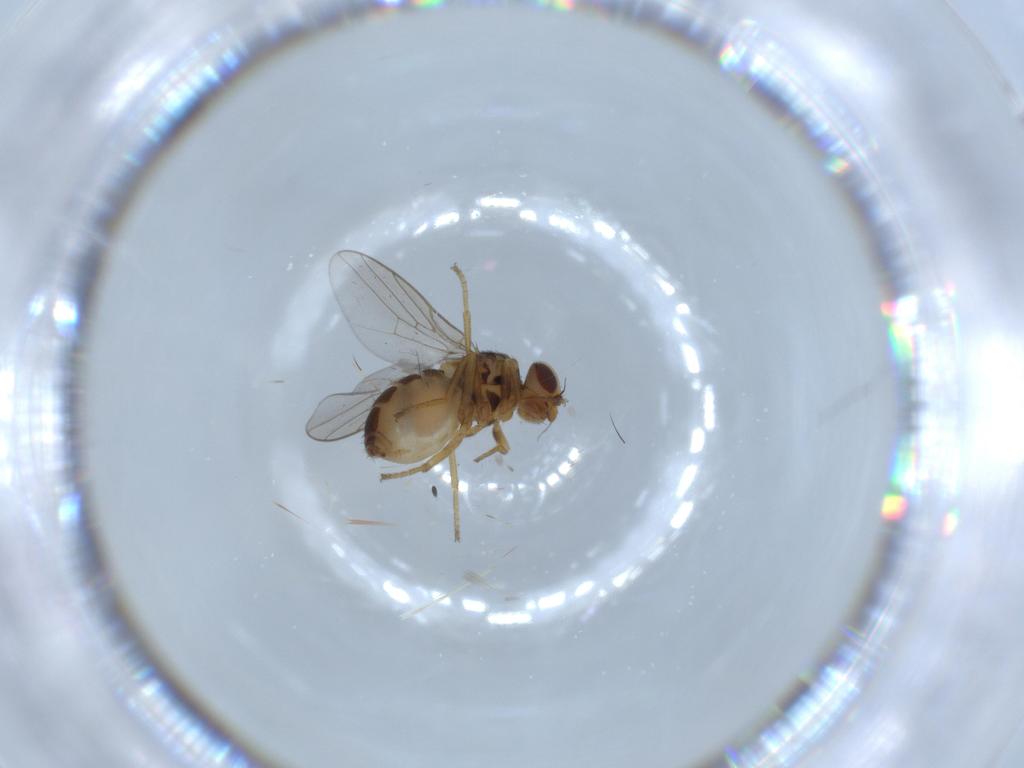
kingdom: Animalia
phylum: Arthropoda
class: Insecta
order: Diptera
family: Chloropidae
